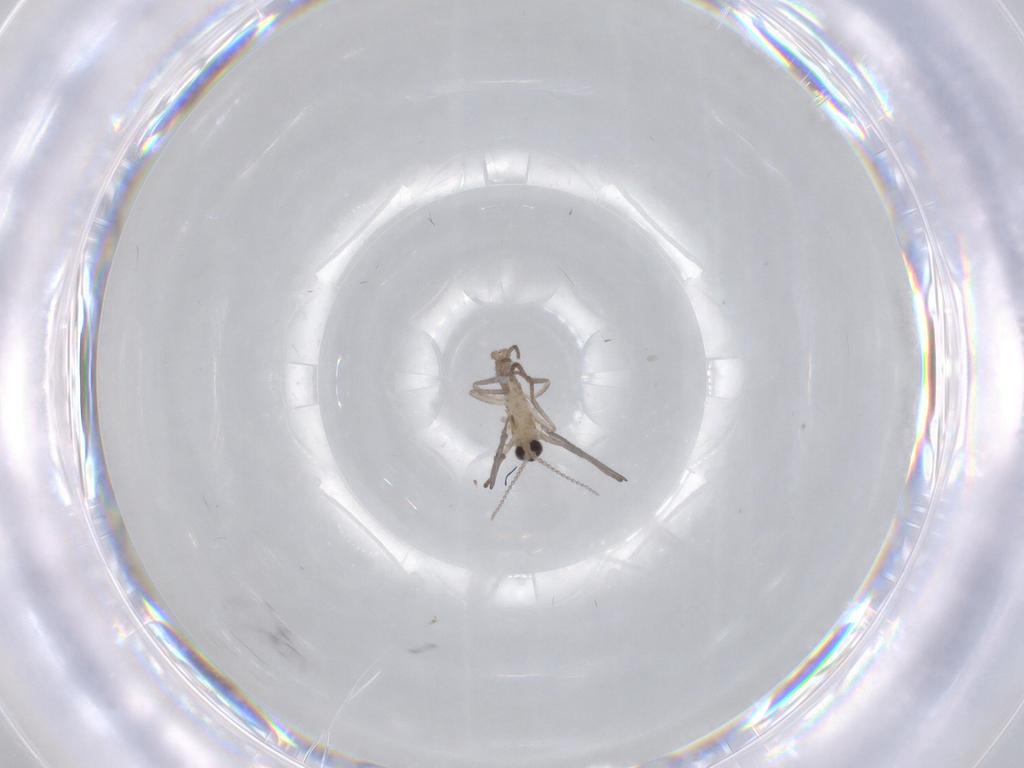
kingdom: Animalia
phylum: Arthropoda
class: Insecta
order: Diptera
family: Cecidomyiidae
